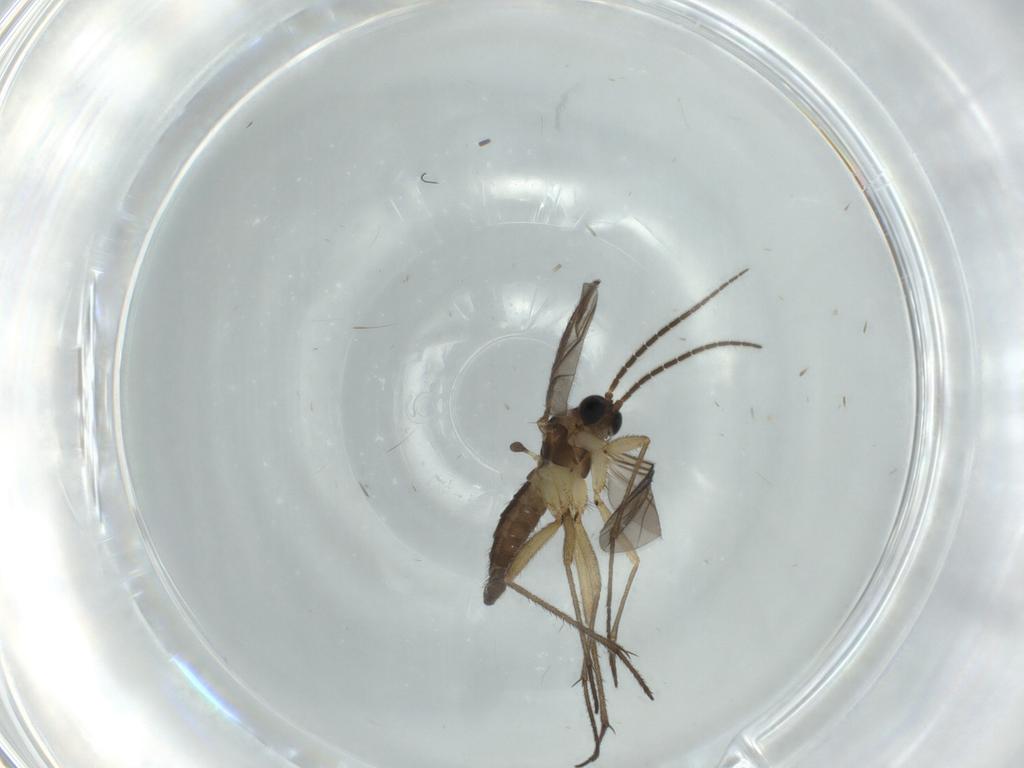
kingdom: Animalia
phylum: Arthropoda
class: Insecta
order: Diptera
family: Sciaridae
